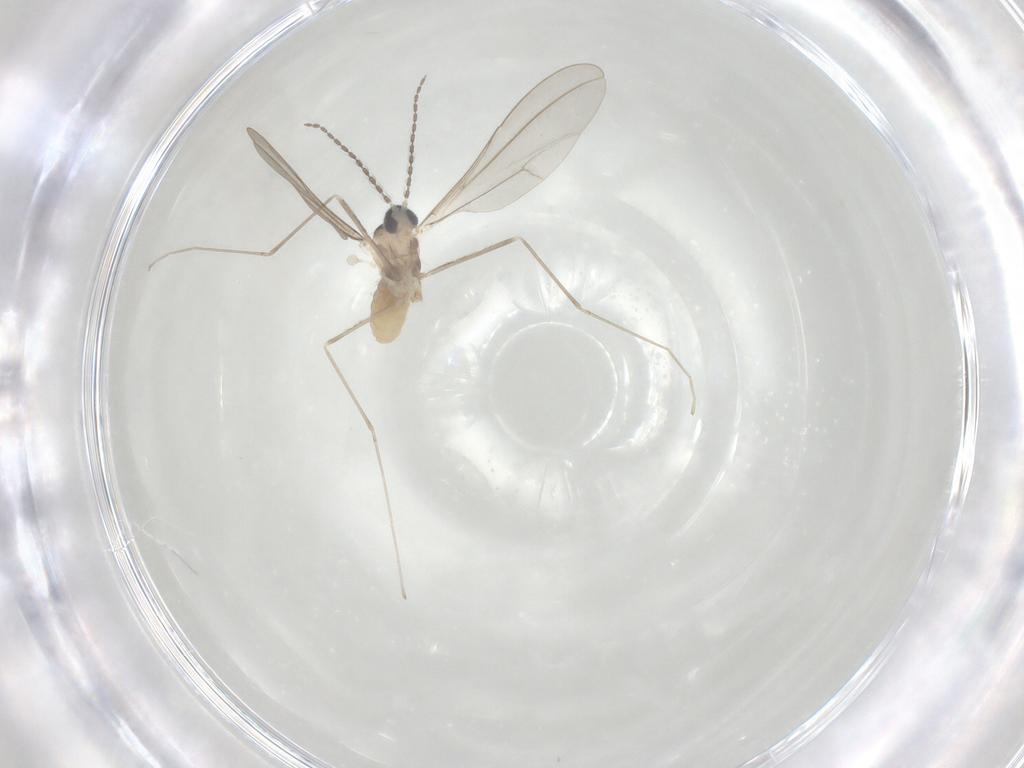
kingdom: Animalia
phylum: Arthropoda
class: Insecta
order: Diptera
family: Cecidomyiidae
